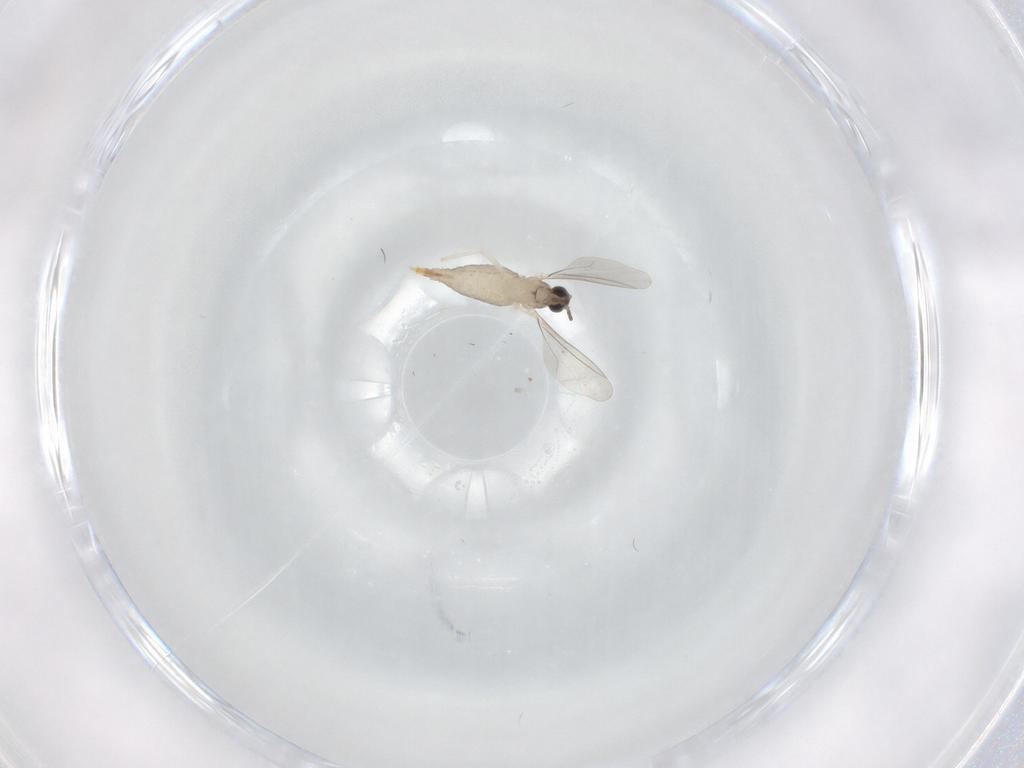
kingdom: Animalia
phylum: Arthropoda
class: Insecta
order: Diptera
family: Cecidomyiidae
